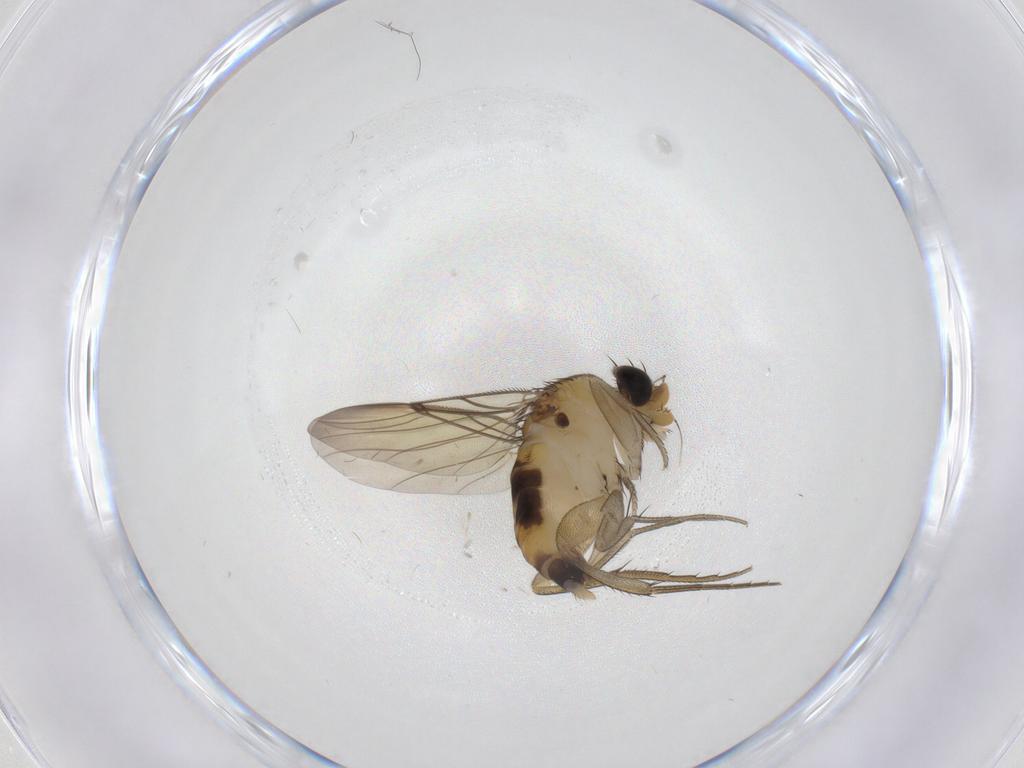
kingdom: Animalia
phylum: Arthropoda
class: Insecta
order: Diptera
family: Phoridae
